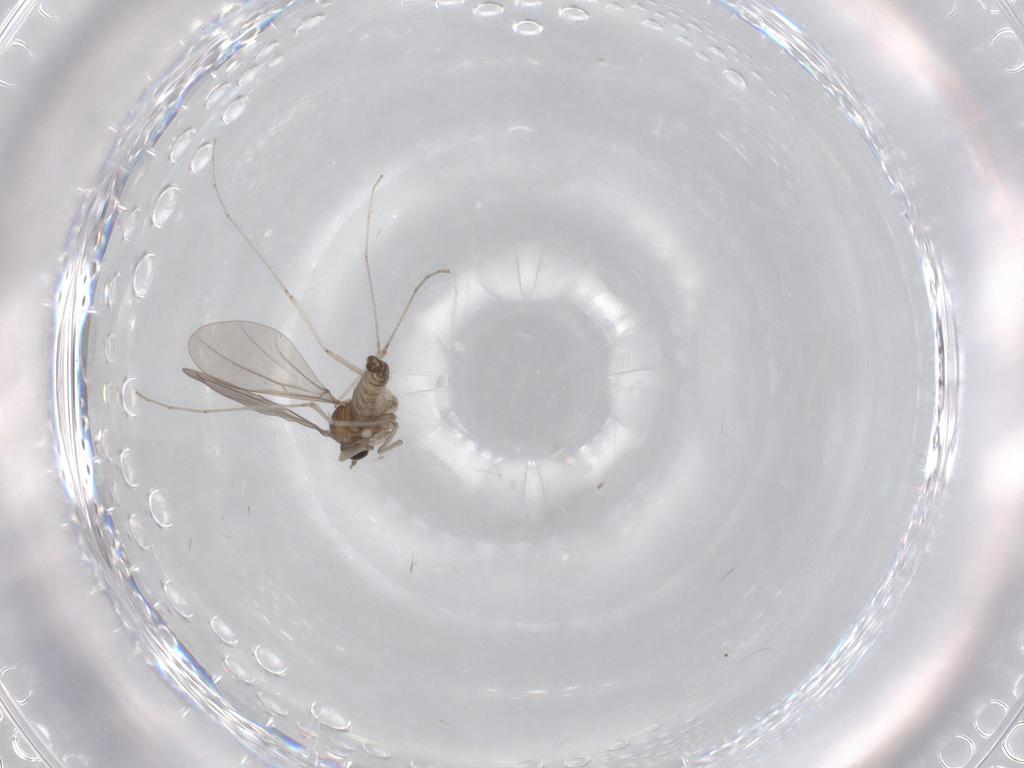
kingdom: Animalia
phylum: Arthropoda
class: Insecta
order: Diptera
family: Cecidomyiidae
